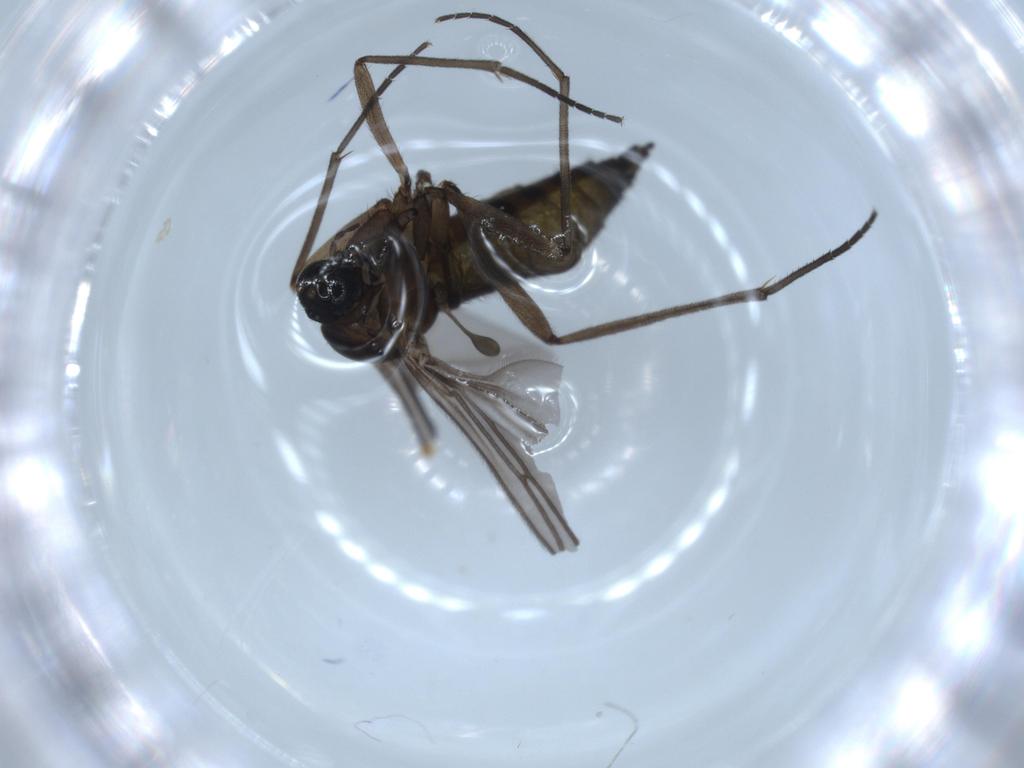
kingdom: Animalia
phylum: Arthropoda
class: Insecta
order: Diptera
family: Sciaridae
